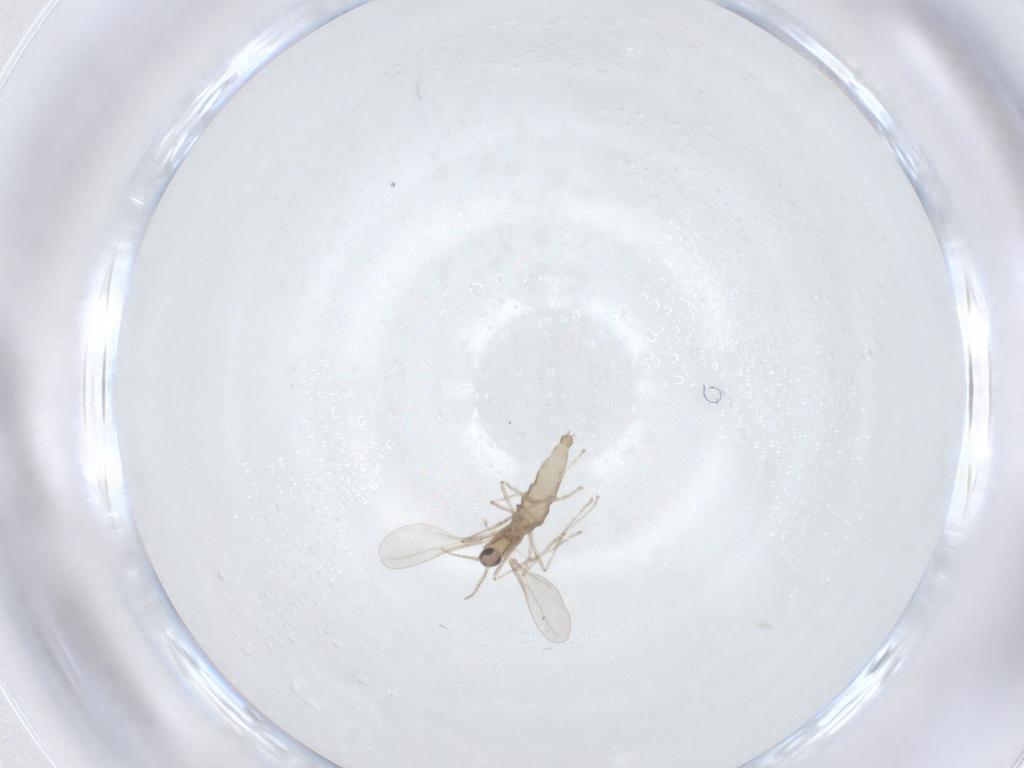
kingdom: Animalia
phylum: Arthropoda
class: Insecta
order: Diptera
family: Cecidomyiidae
